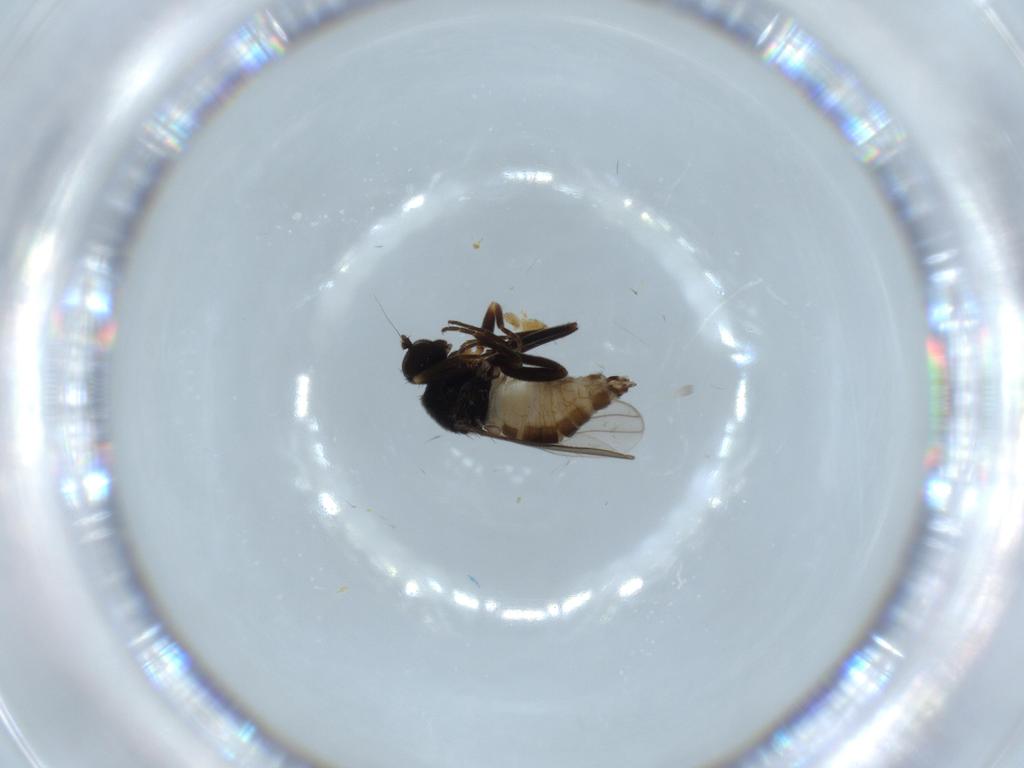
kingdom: Animalia
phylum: Arthropoda
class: Insecta
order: Diptera
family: Hybotidae
